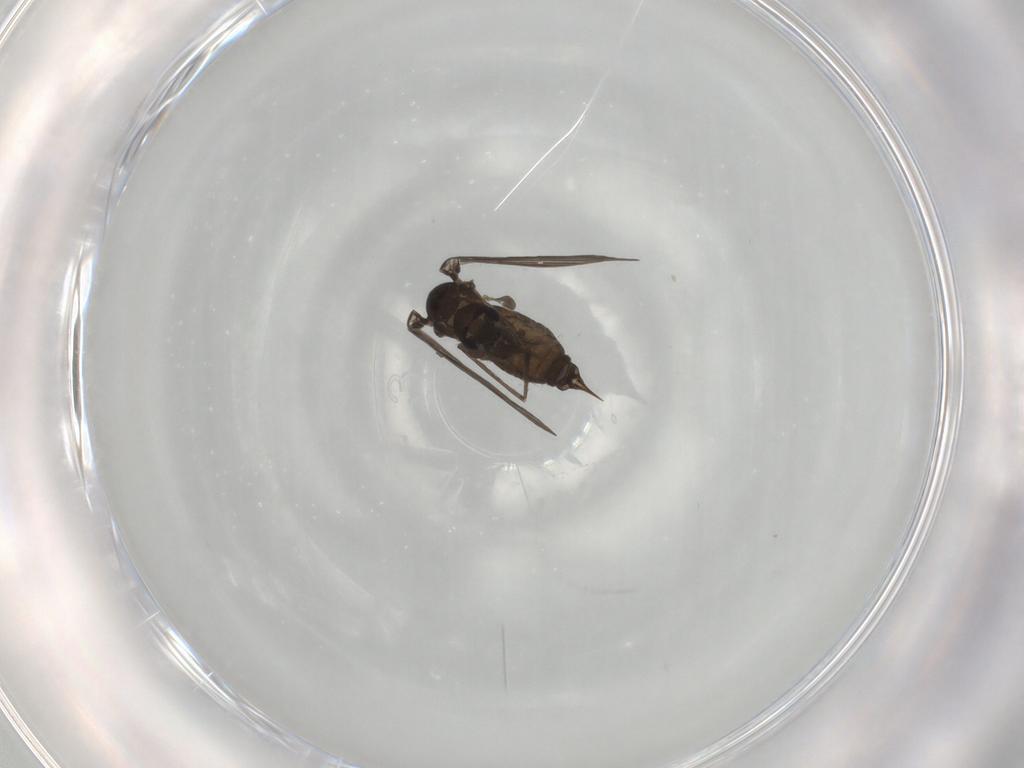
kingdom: Animalia
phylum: Arthropoda
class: Insecta
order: Diptera
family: Psychodidae
